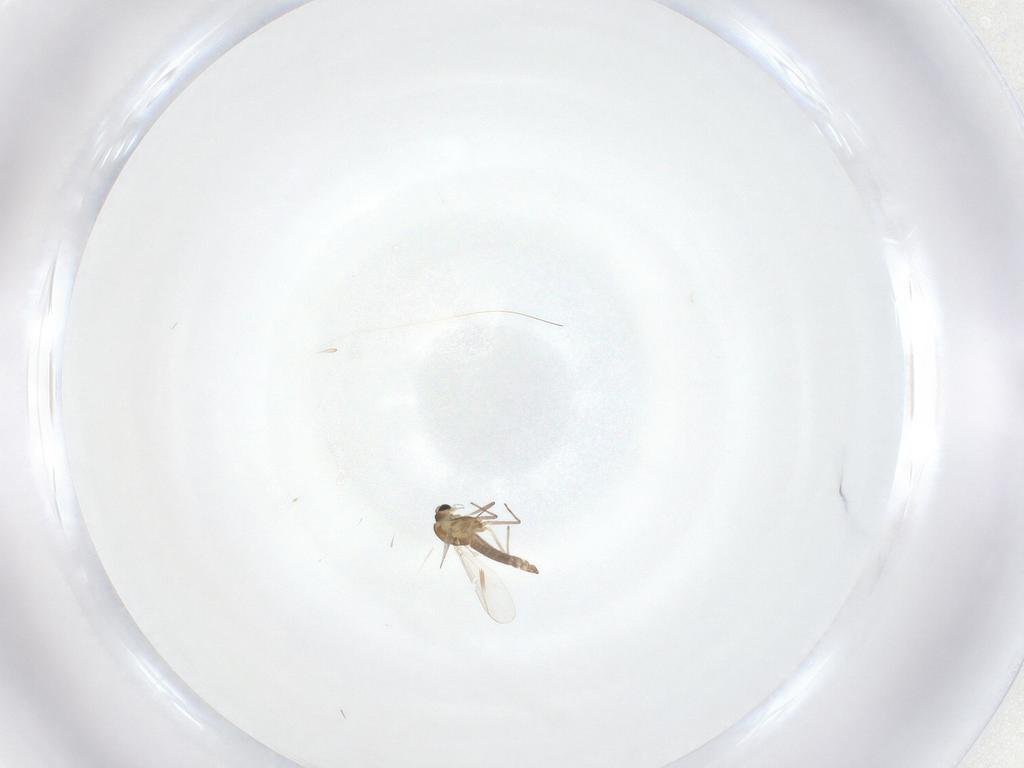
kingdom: Animalia
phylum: Arthropoda
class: Insecta
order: Diptera
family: Chironomidae
